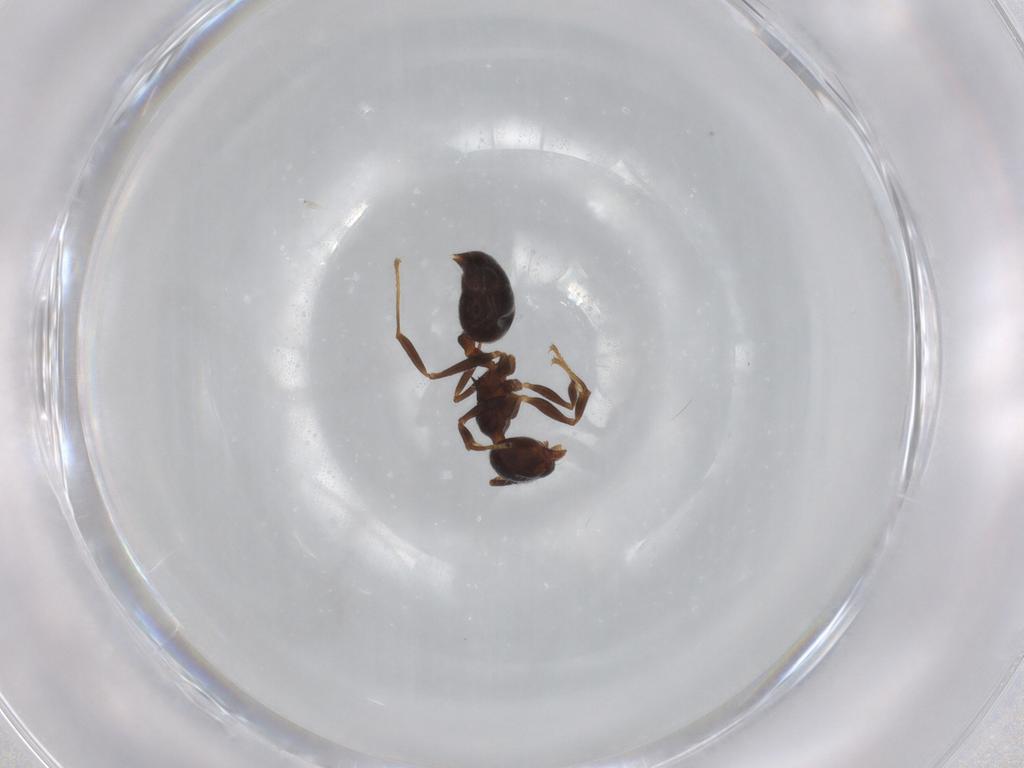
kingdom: Animalia
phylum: Arthropoda
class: Insecta
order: Hymenoptera
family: Formicidae
